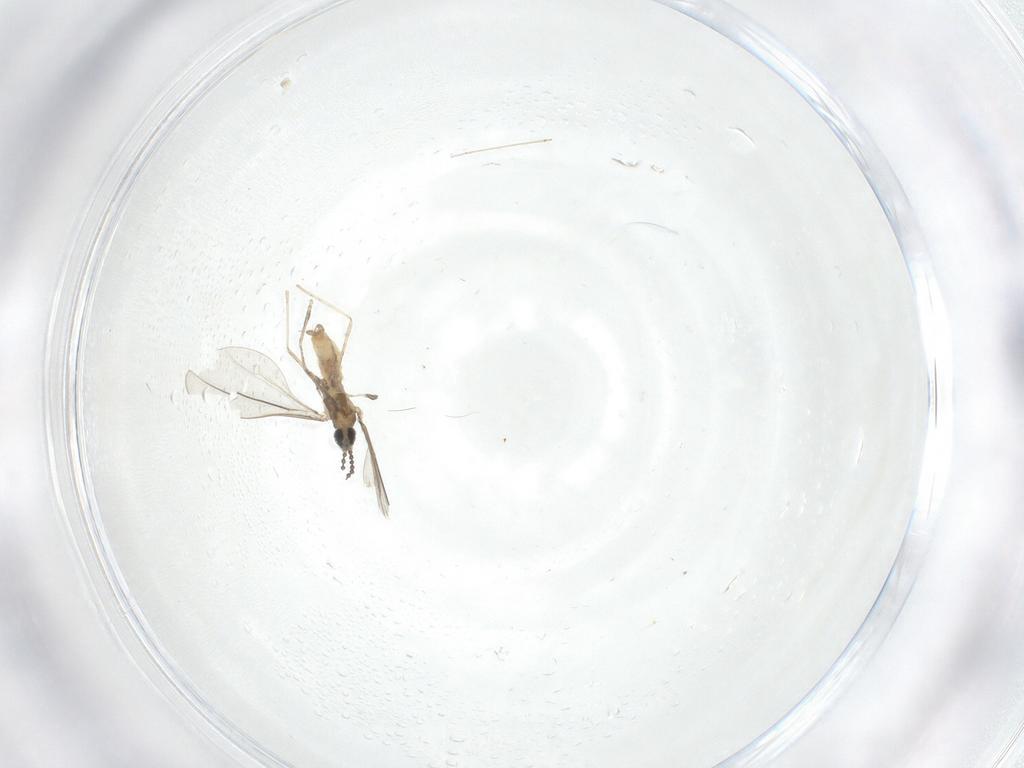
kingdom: Animalia
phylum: Arthropoda
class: Insecta
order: Diptera
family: Cecidomyiidae
